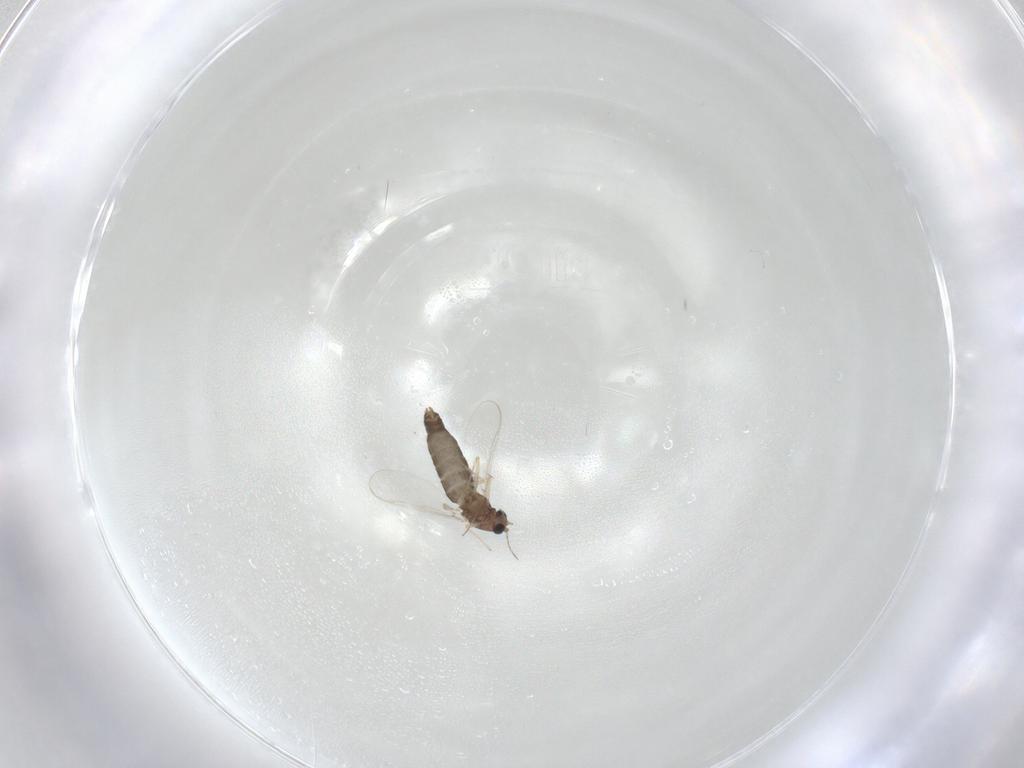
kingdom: Animalia
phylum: Arthropoda
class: Insecta
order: Diptera
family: Chironomidae
